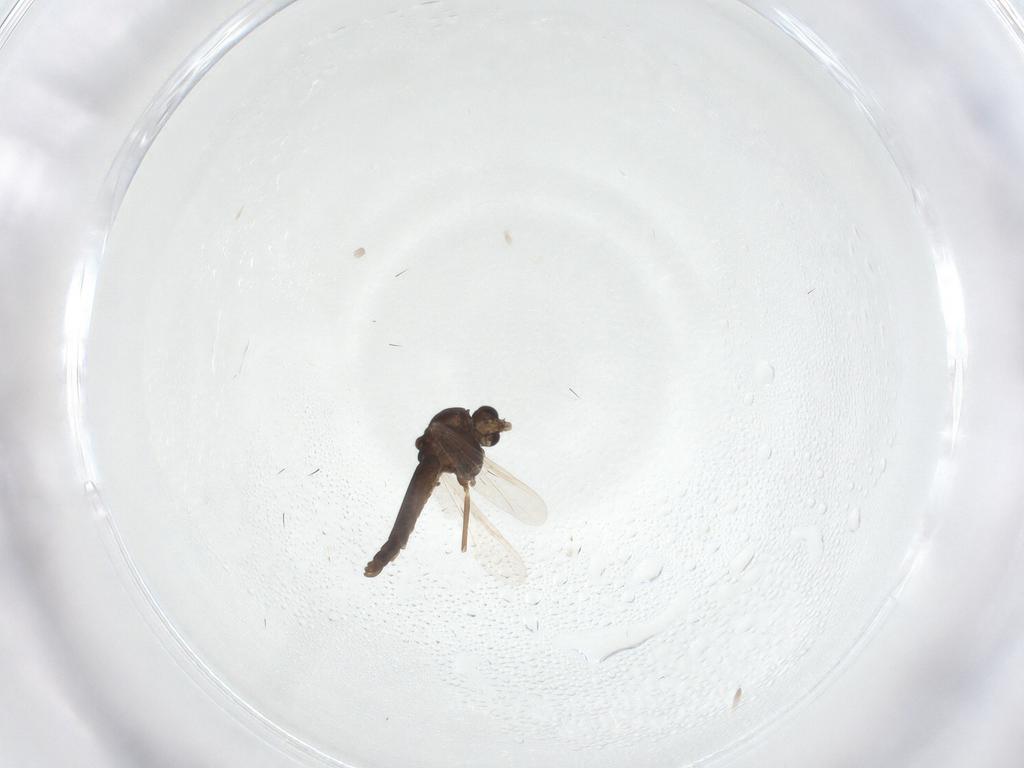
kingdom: Animalia
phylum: Arthropoda
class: Insecta
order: Diptera
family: Chironomidae
